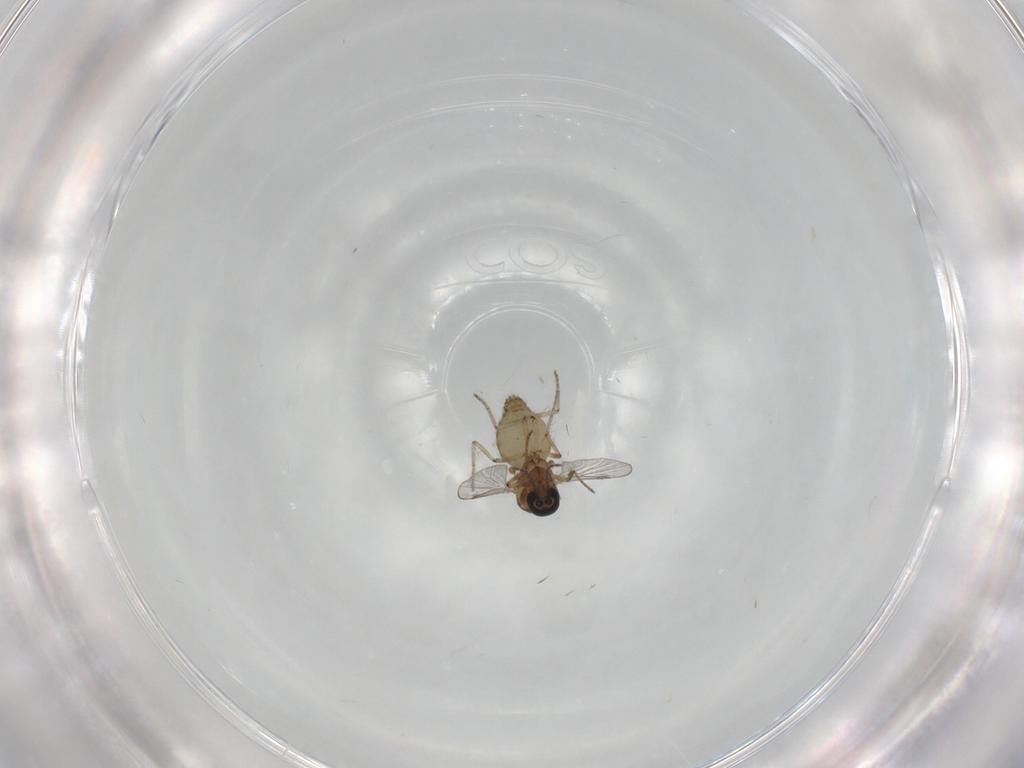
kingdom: Animalia
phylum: Arthropoda
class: Insecta
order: Diptera
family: Ceratopogonidae
